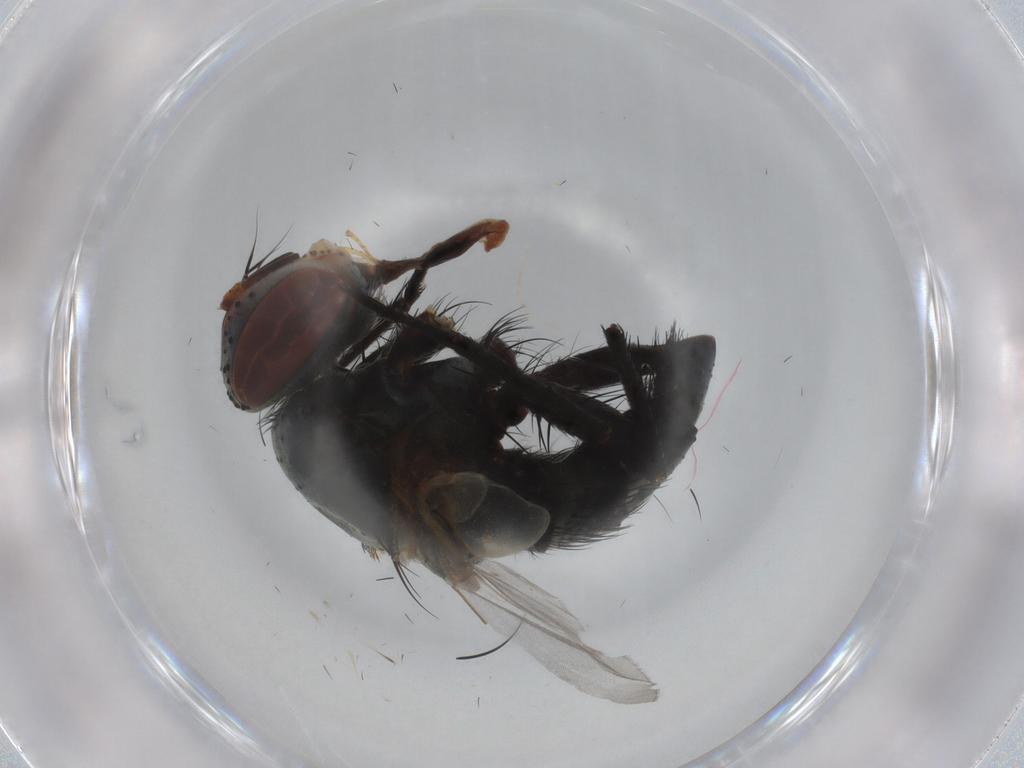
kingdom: Animalia
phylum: Arthropoda
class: Insecta
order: Diptera
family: Tachinidae
